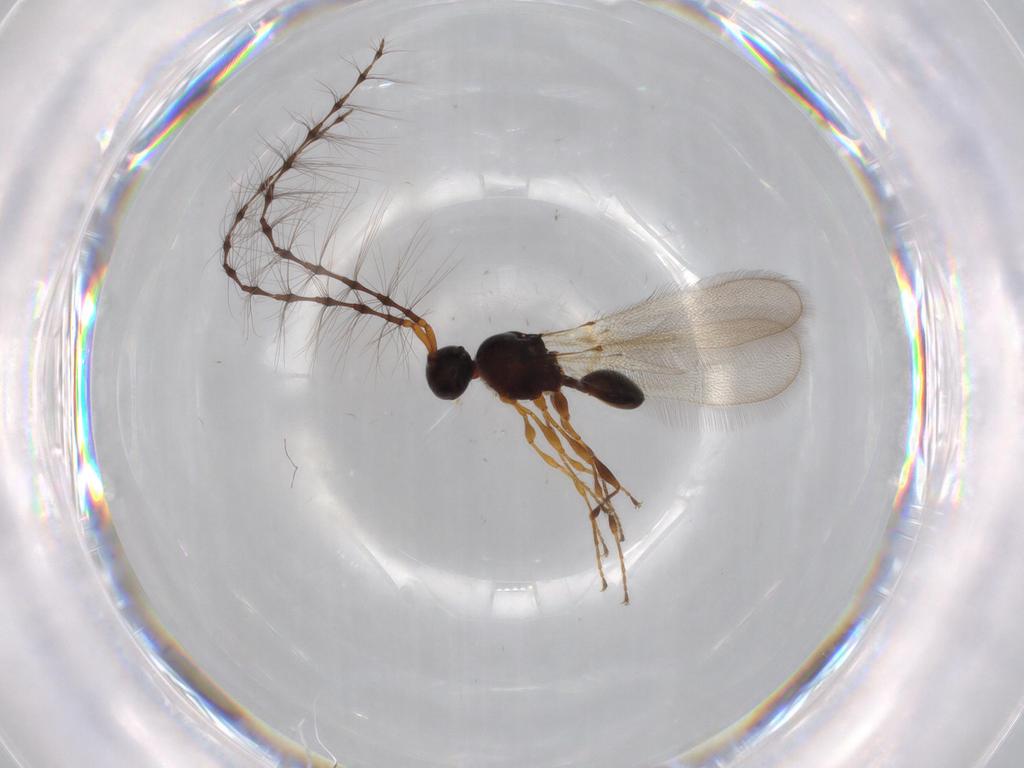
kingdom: Animalia
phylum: Arthropoda
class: Insecta
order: Hymenoptera
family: Diapriidae
